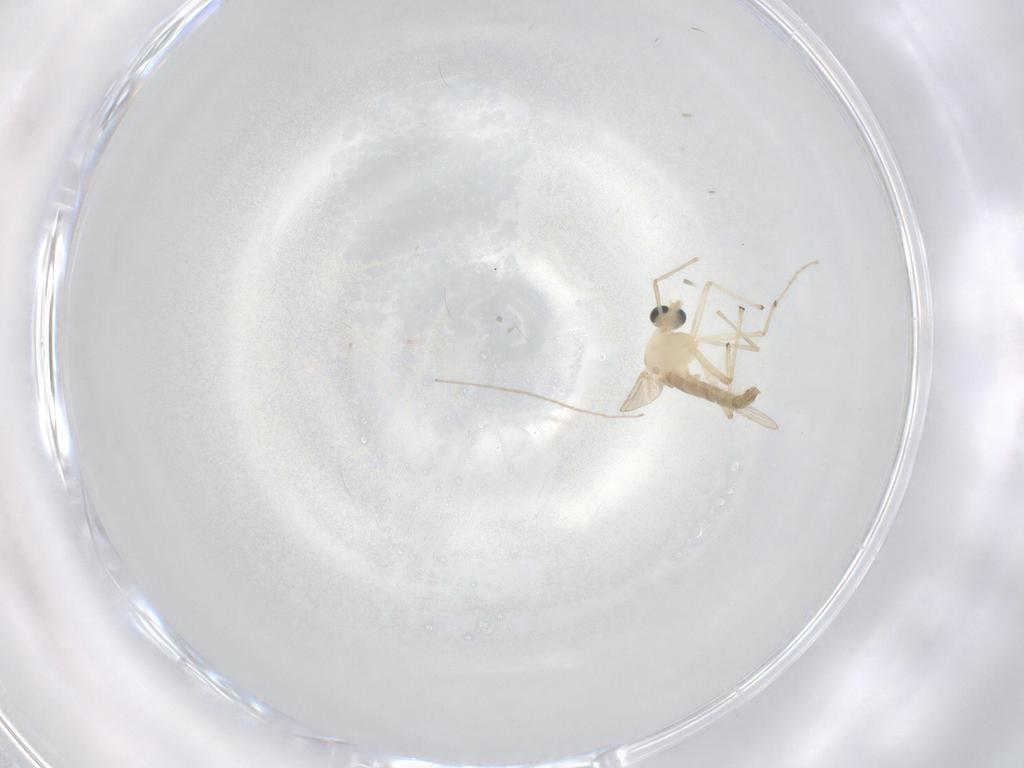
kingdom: Animalia
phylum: Arthropoda
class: Insecta
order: Diptera
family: Chironomidae
